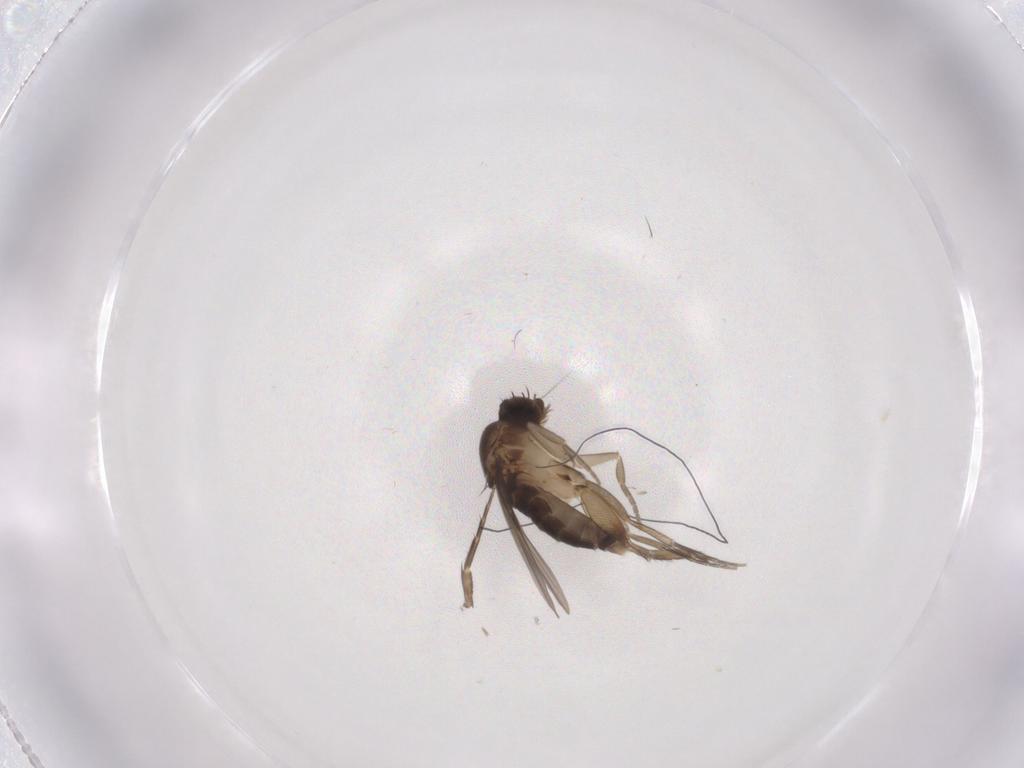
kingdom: Animalia
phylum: Arthropoda
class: Insecta
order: Diptera
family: Phoridae
